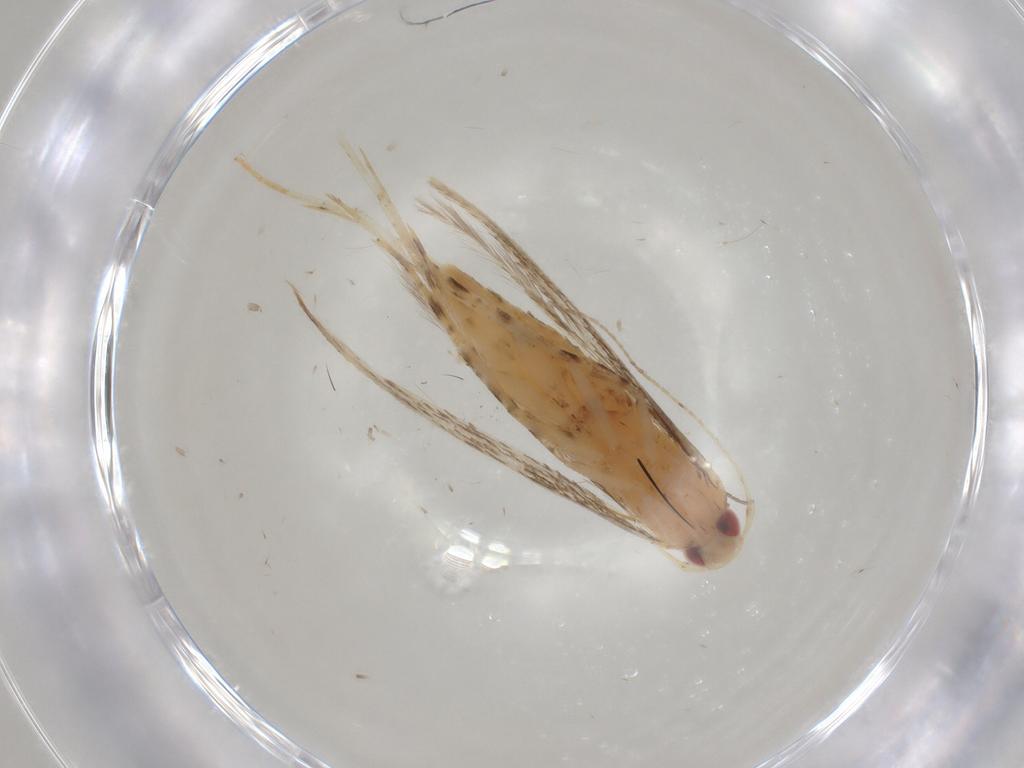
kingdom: Animalia
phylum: Arthropoda
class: Insecta
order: Lepidoptera
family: Cosmopterigidae
